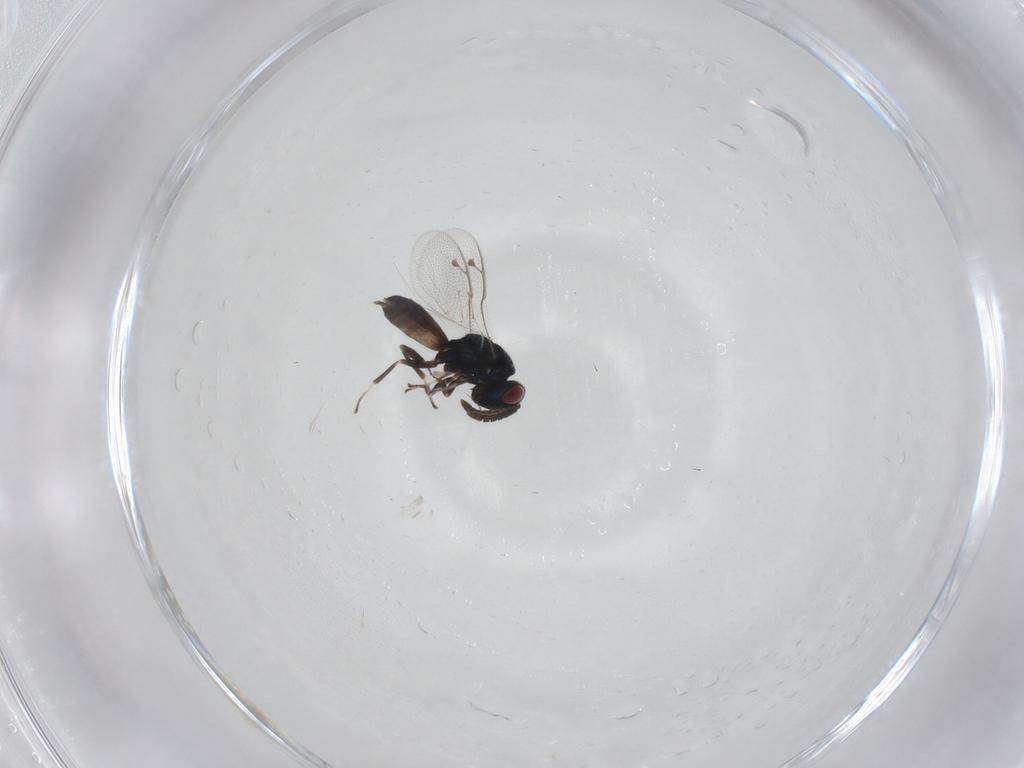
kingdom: Animalia
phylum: Arthropoda
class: Insecta
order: Hymenoptera
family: Pteromalidae
